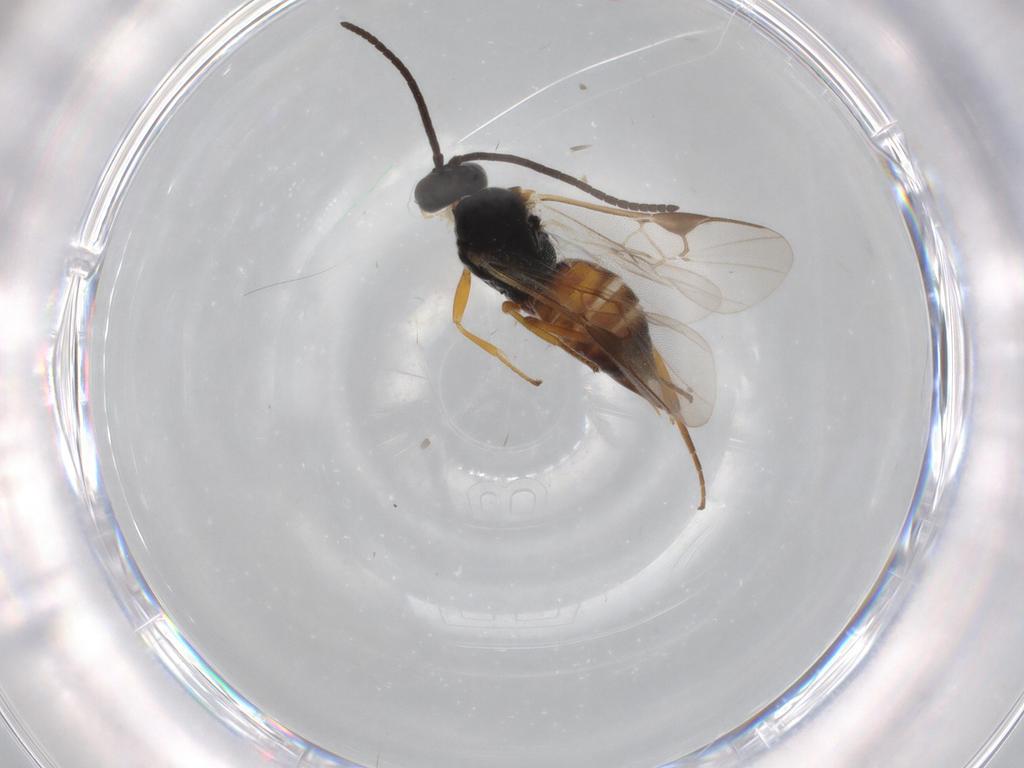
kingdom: Animalia
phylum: Arthropoda
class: Insecta
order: Hymenoptera
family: Braconidae
